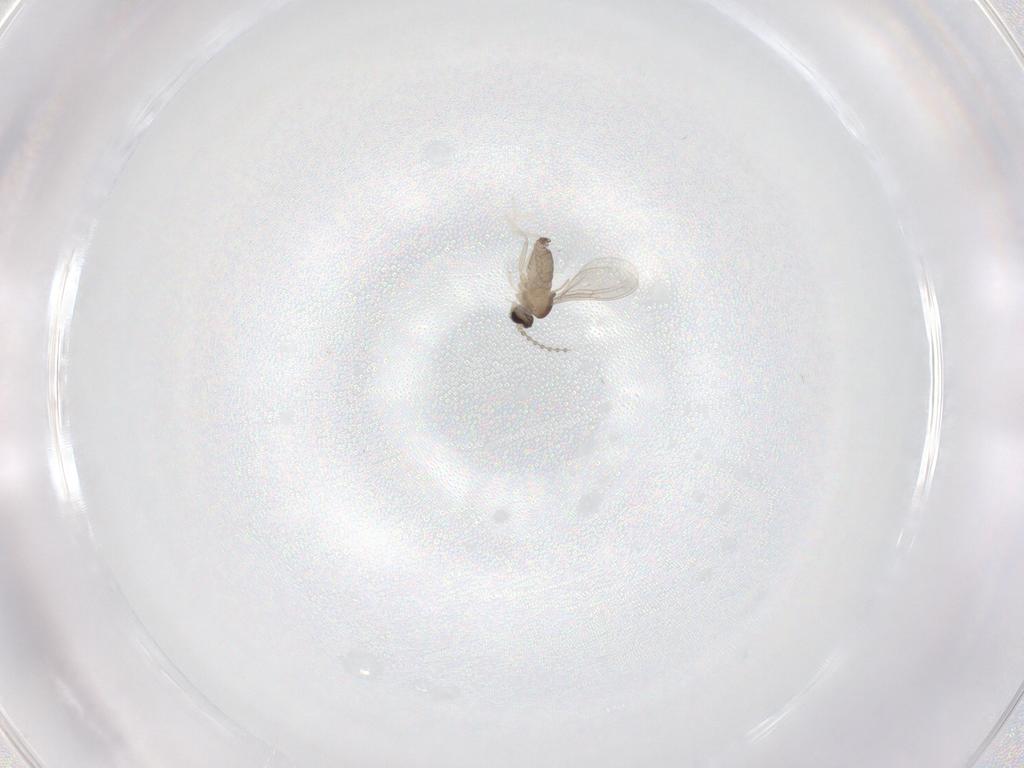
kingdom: Animalia
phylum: Arthropoda
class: Insecta
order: Diptera
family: Cecidomyiidae
